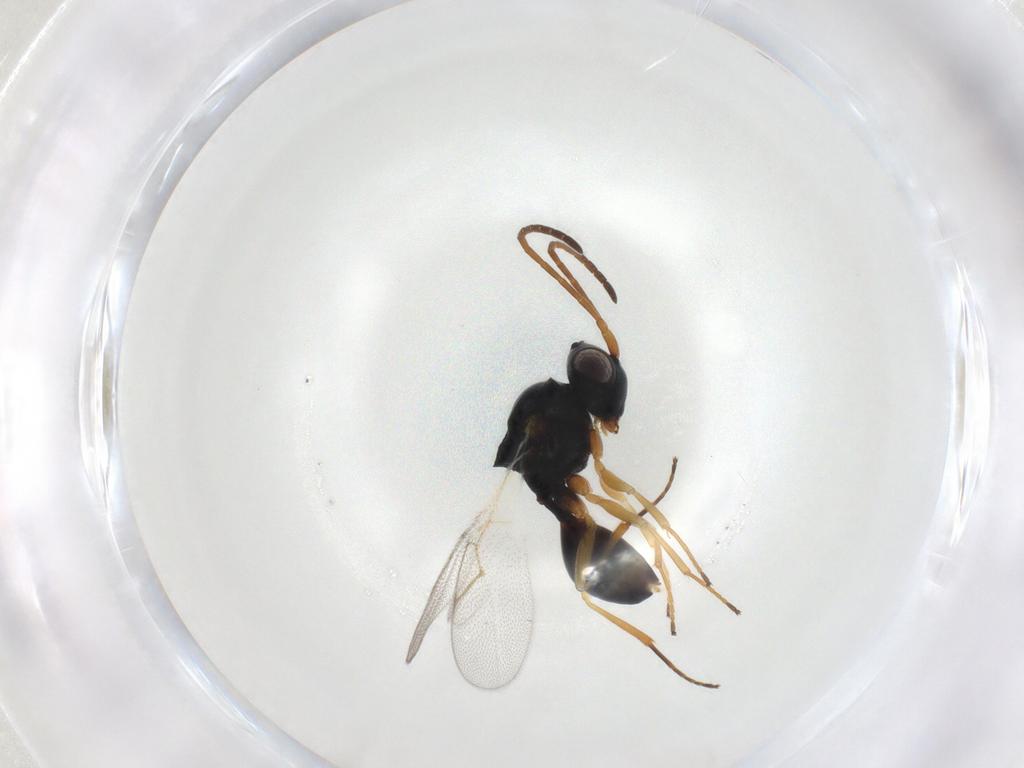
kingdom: Animalia
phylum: Arthropoda
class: Insecta
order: Hymenoptera
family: Figitidae
